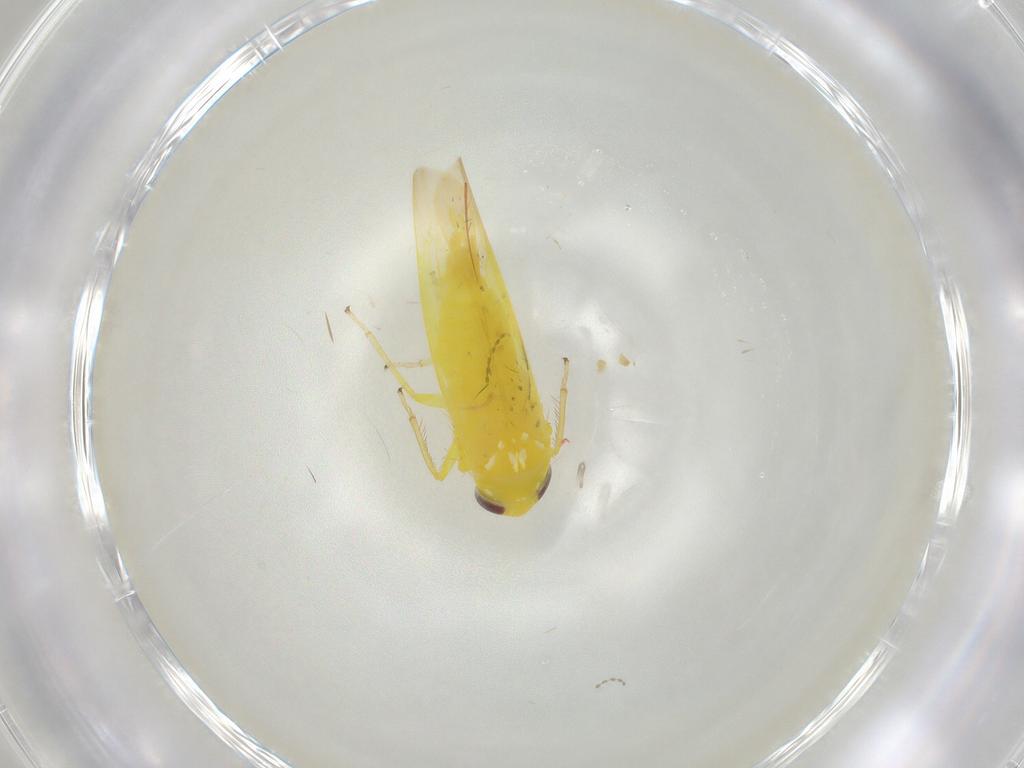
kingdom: Animalia
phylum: Arthropoda
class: Insecta
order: Hemiptera
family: Cicadellidae
